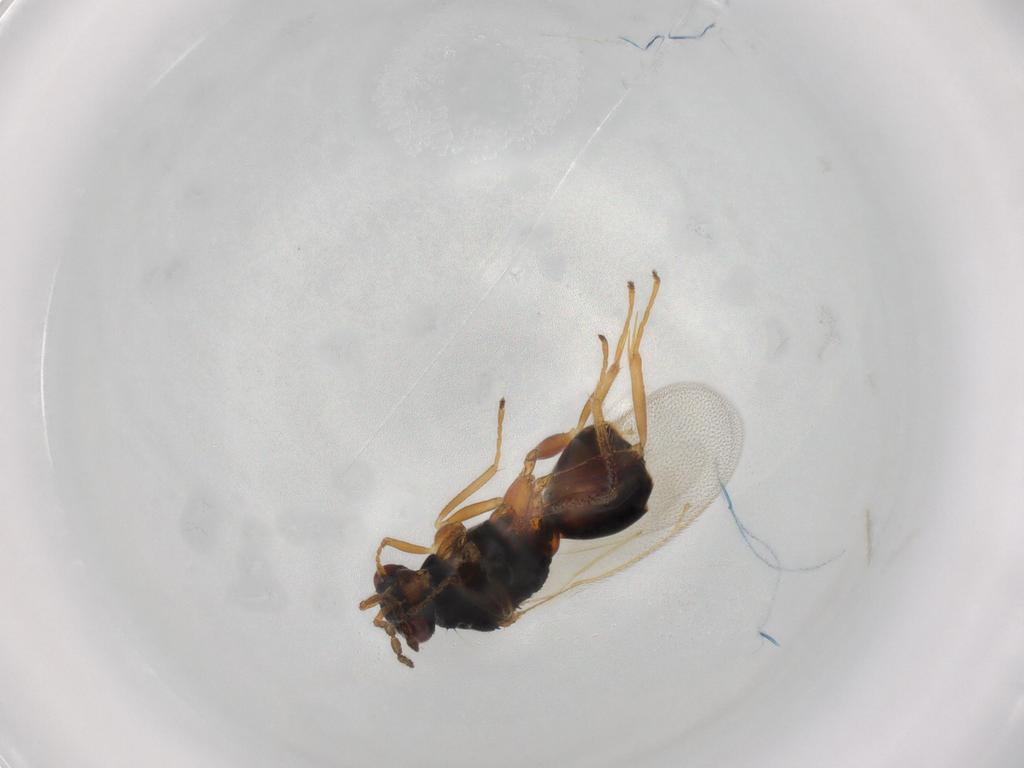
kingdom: Animalia
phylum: Arthropoda
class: Insecta
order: Hymenoptera
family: Eulophidae
